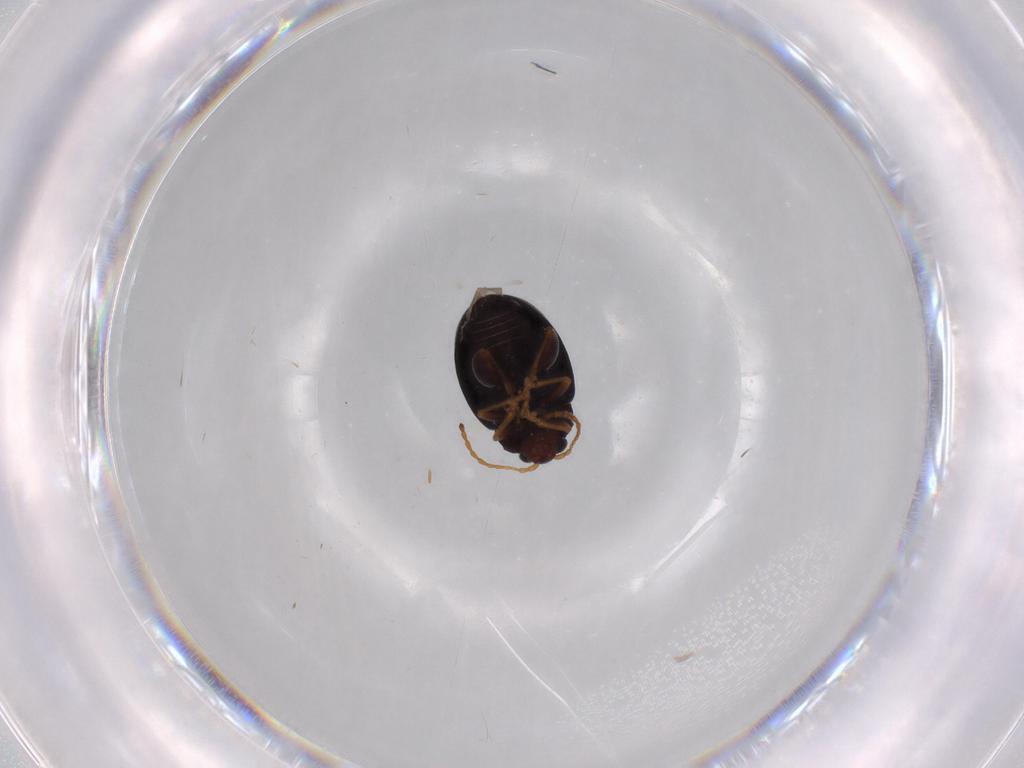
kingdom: Animalia
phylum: Arthropoda
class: Insecta
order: Coleoptera
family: Chrysomelidae
